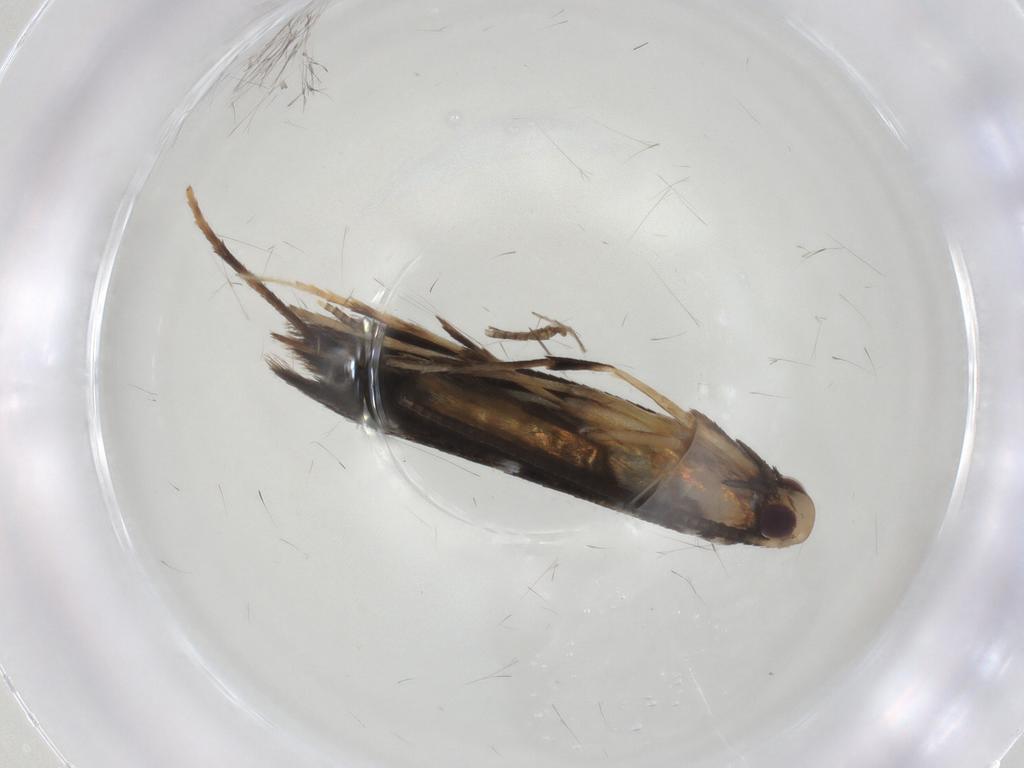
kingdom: Animalia
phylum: Arthropoda
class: Insecta
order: Lepidoptera
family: Gracillariidae
